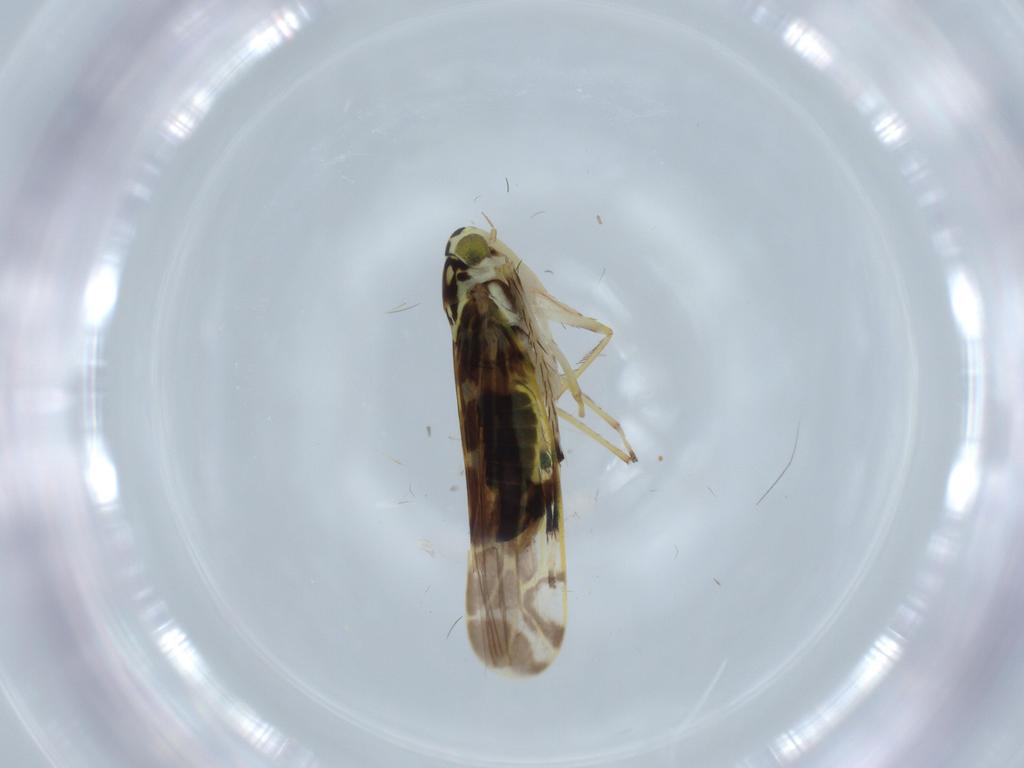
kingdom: Animalia
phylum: Arthropoda
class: Insecta
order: Hemiptera
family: Cicadellidae
